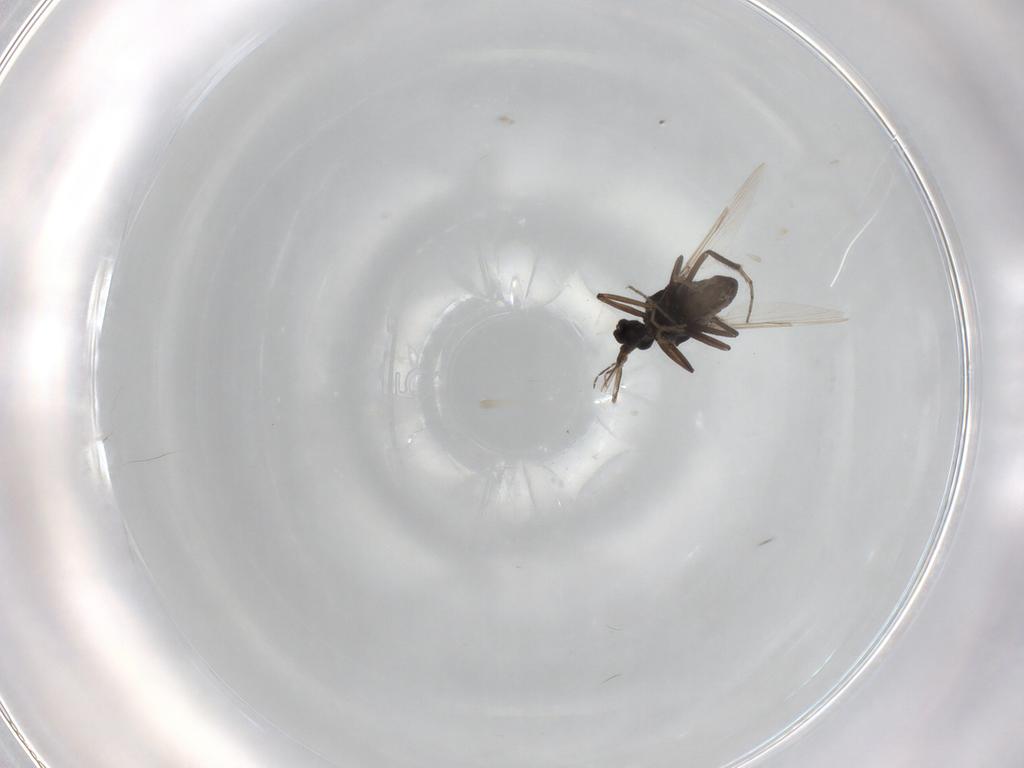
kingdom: Animalia
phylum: Arthropoda
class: Insecta
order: Diptera
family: Ceratopogonidae
